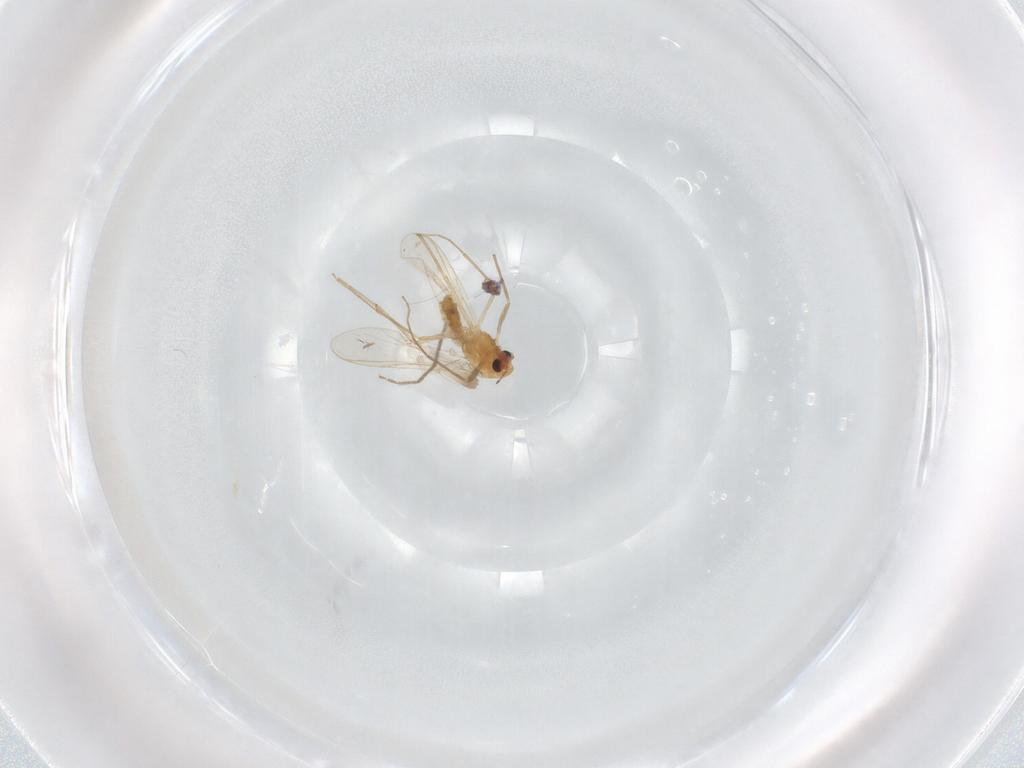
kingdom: Animalia
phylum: Arthropoda
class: Insecta
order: Diptera
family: Chironomidae
